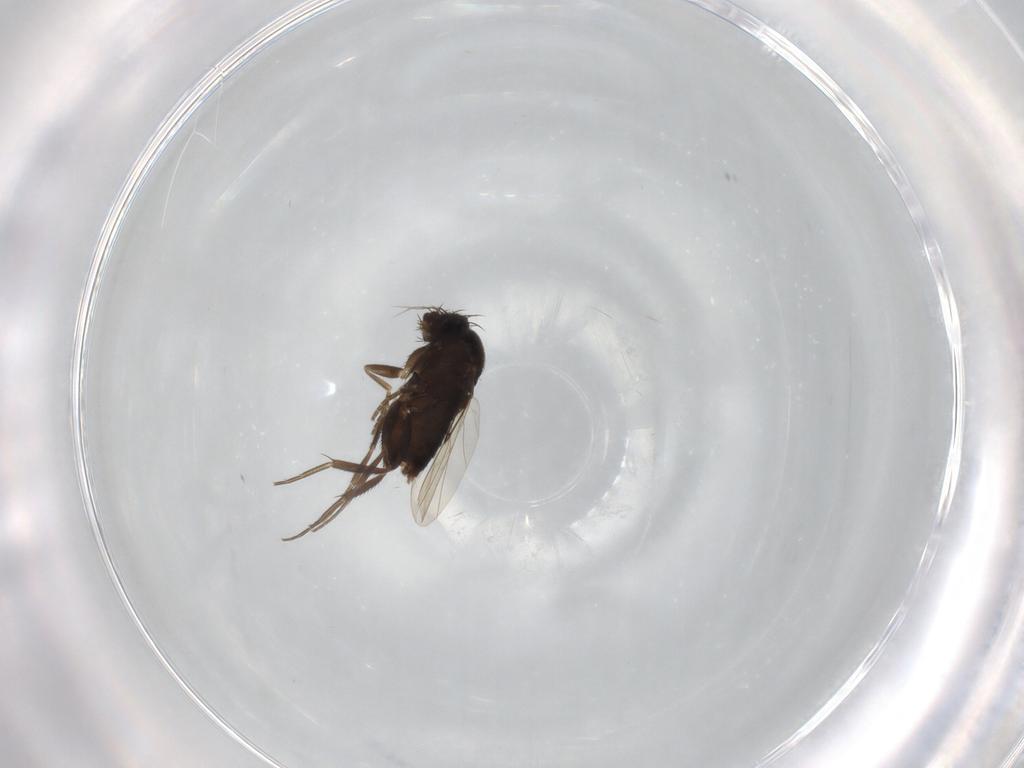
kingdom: Animalia
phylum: Arthropoda
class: Insecta
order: Diptera
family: Phoridae
